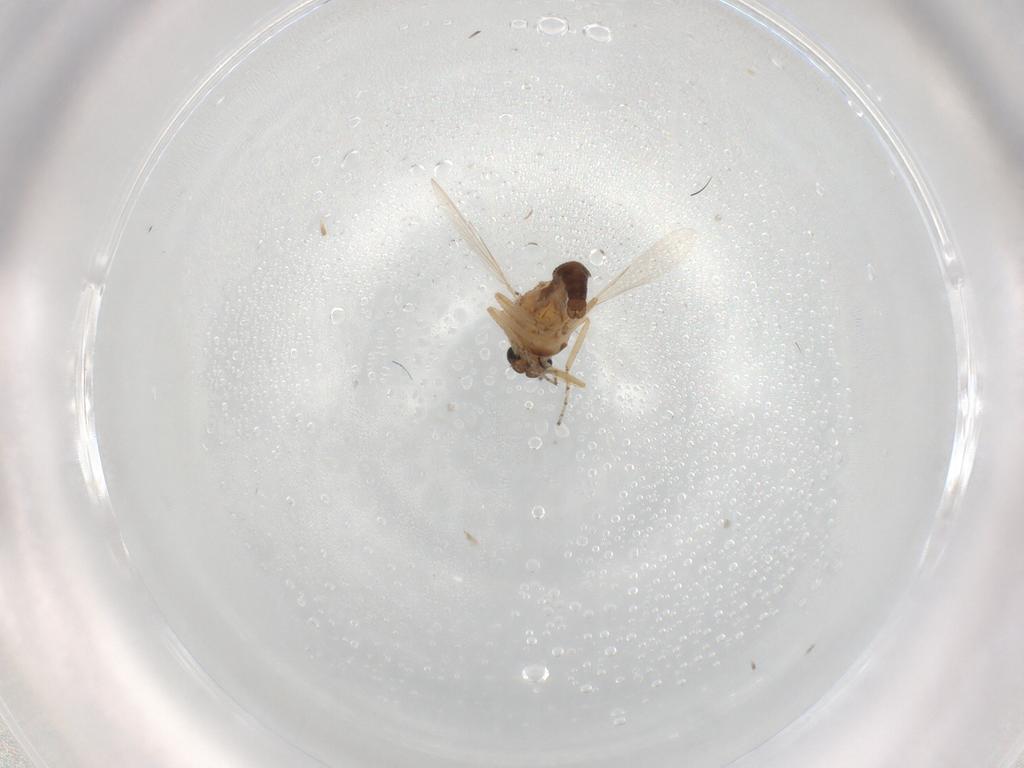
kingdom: Animalia
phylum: Arthropoda
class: Insecta
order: Diptera
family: Ceratopogonidae
